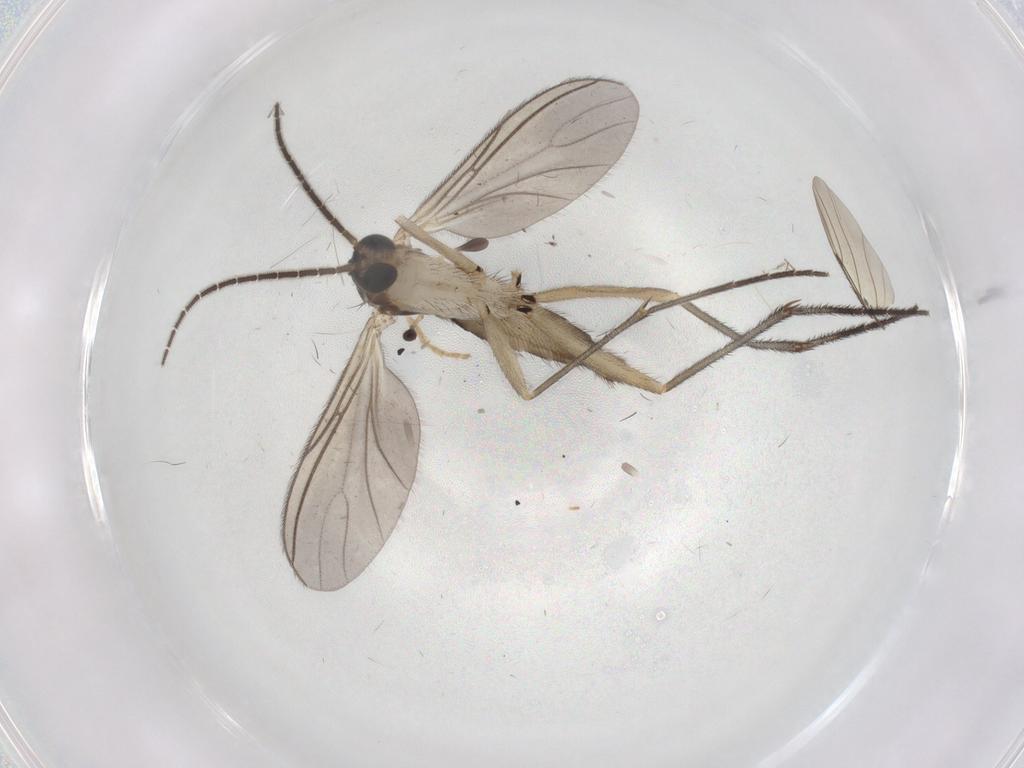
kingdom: Animalia
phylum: Arthropoda
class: Insecta
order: Diptera
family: Sciaridae
